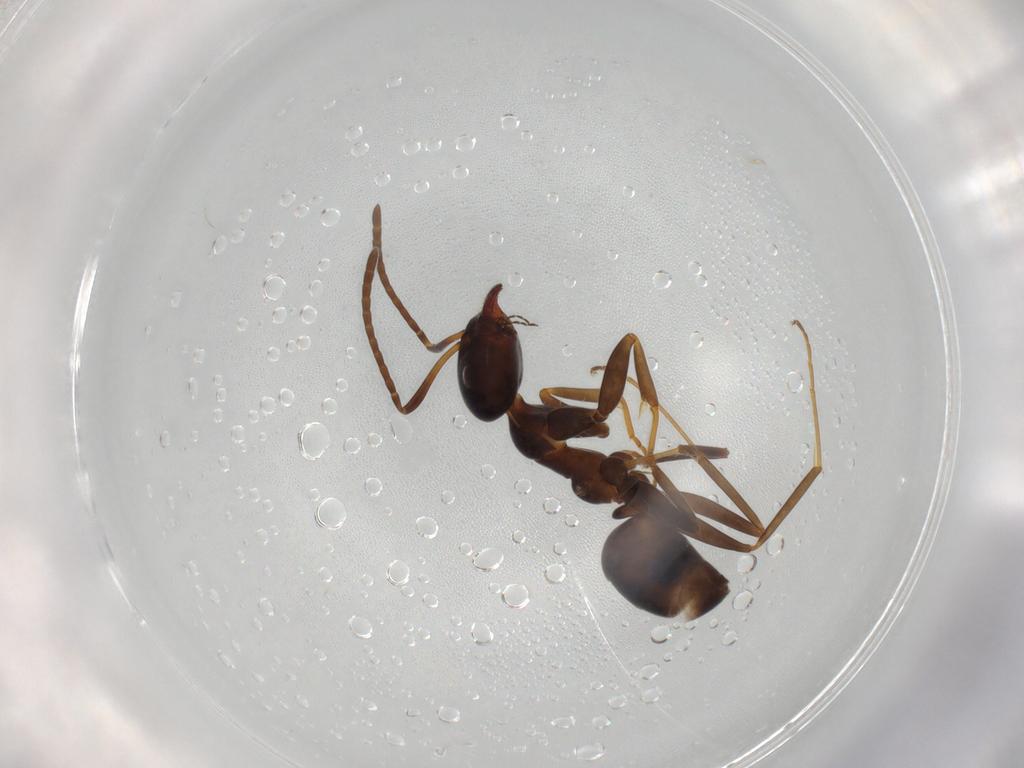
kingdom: Animalia
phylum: Arthropoda
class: Insecta
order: Hymenoptera
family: Formicidae
